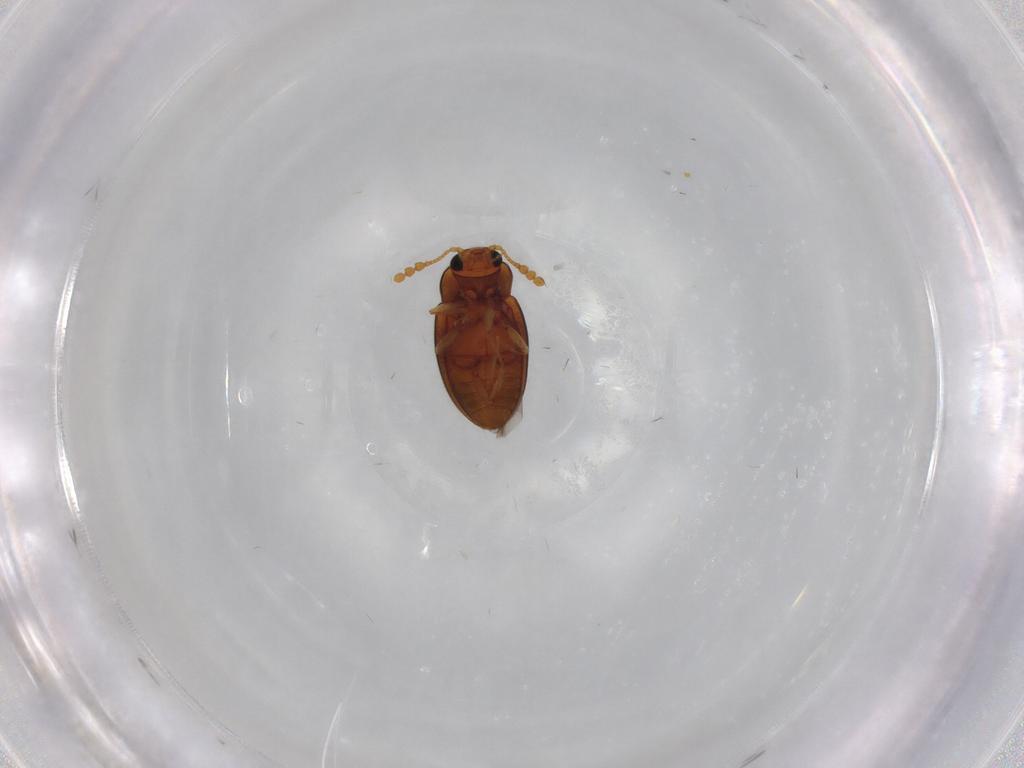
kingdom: Animalia
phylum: Arthropoda
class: Insecta
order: Coleoptera
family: Erotylidae
